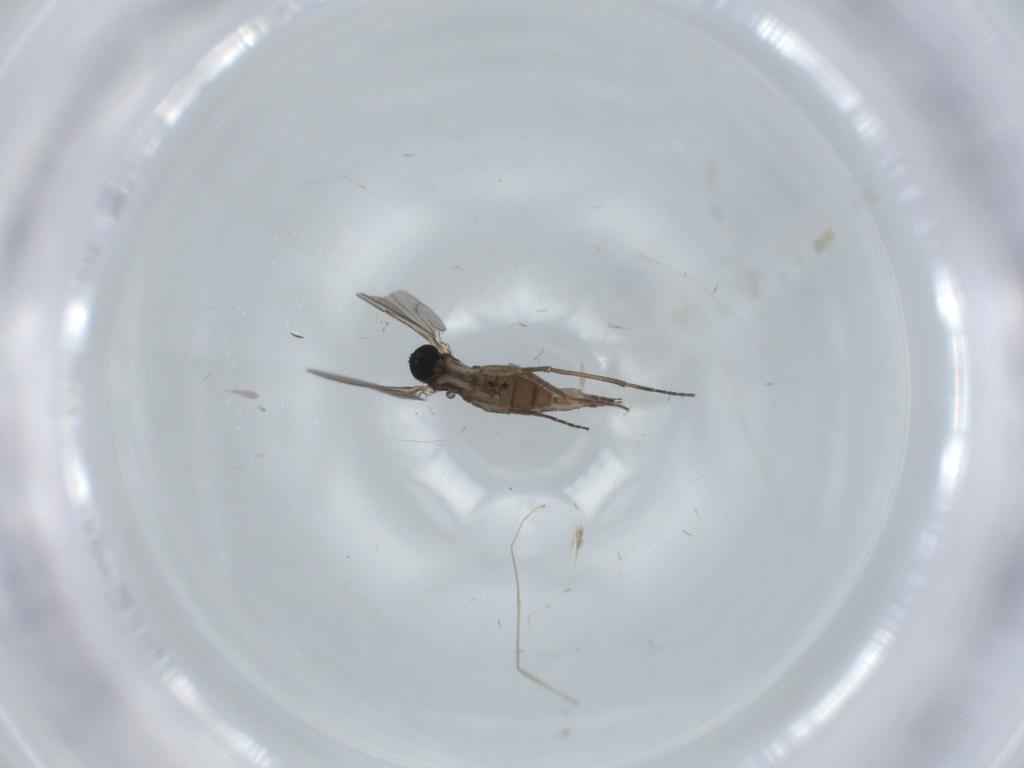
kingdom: Animalia
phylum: Arthropoda
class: Insecta
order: Diptera
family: Sciaridae
